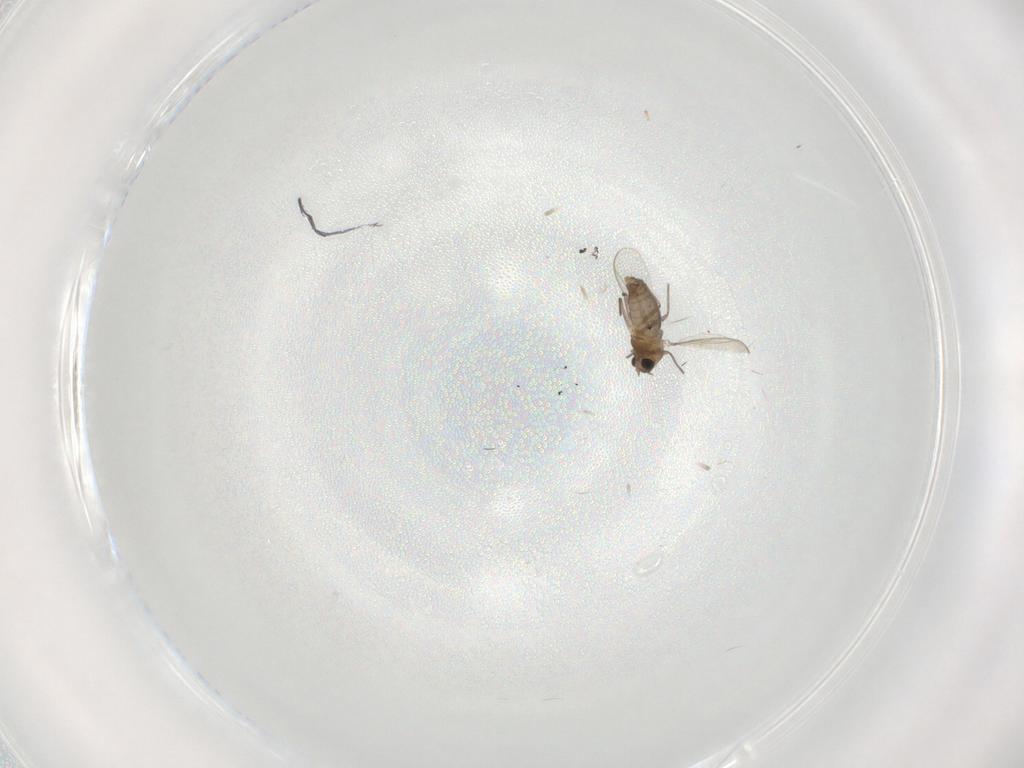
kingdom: Animalia
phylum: Arthropoda
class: Insecta
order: Diptera
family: Chironomidae
